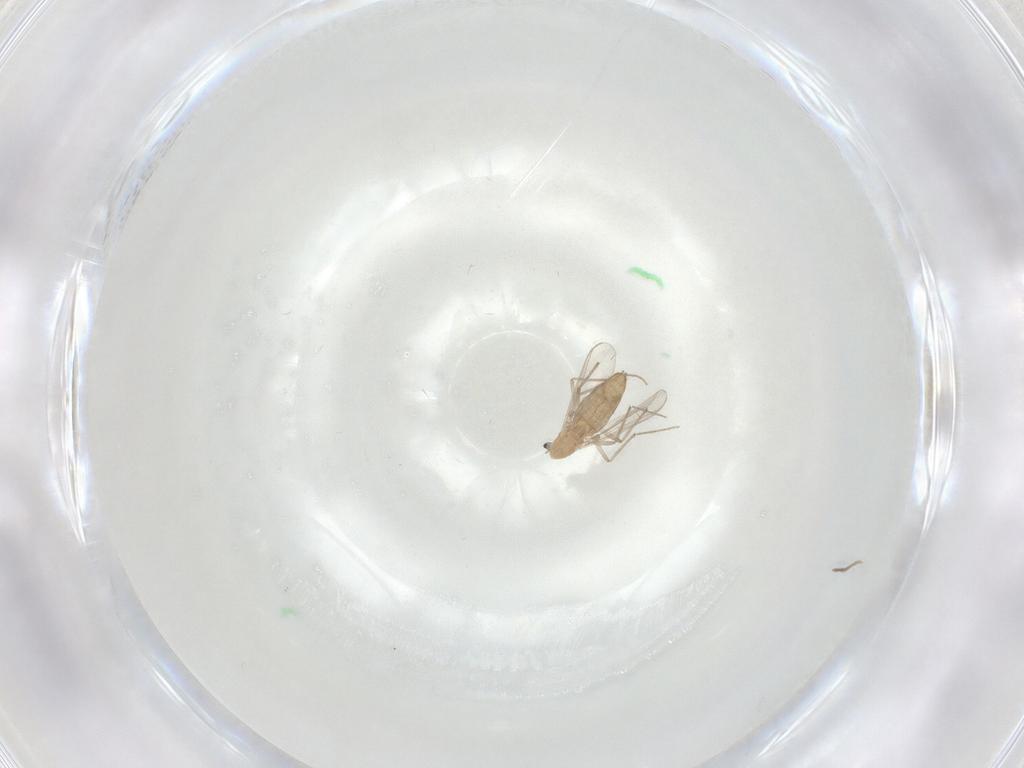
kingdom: Animalia
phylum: Arthropoda
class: Insecta
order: Diptera
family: Chironomidae
